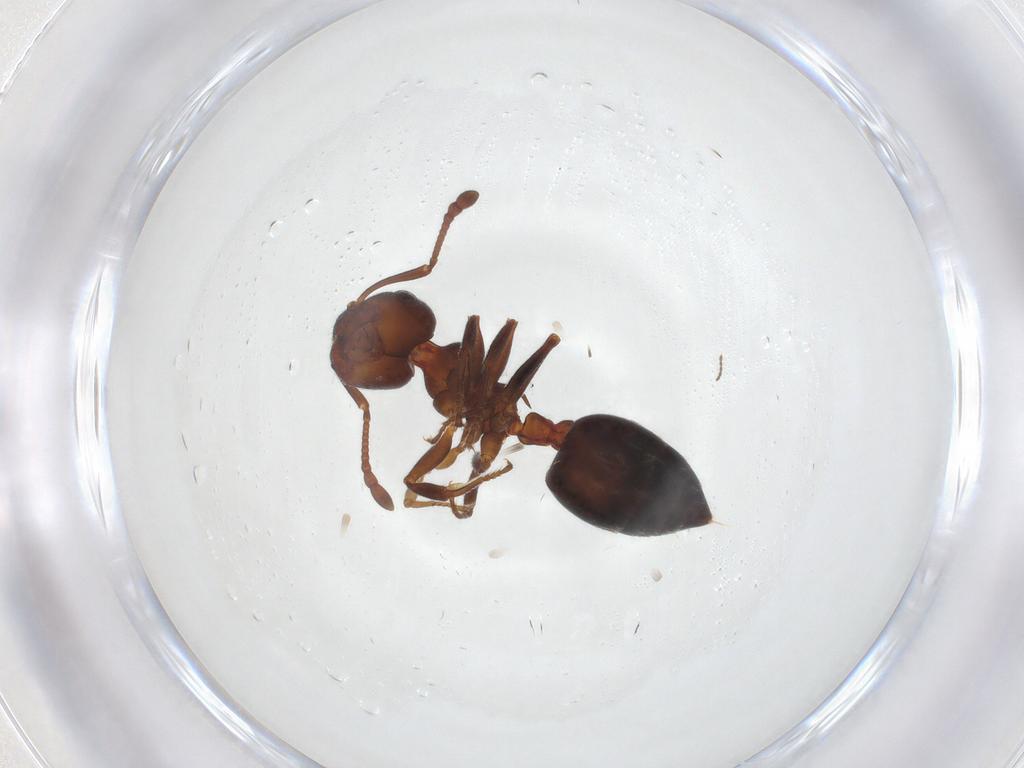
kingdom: Animalia
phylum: Arthropoda
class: Insecta
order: Hymenoptera
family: Formicidae
